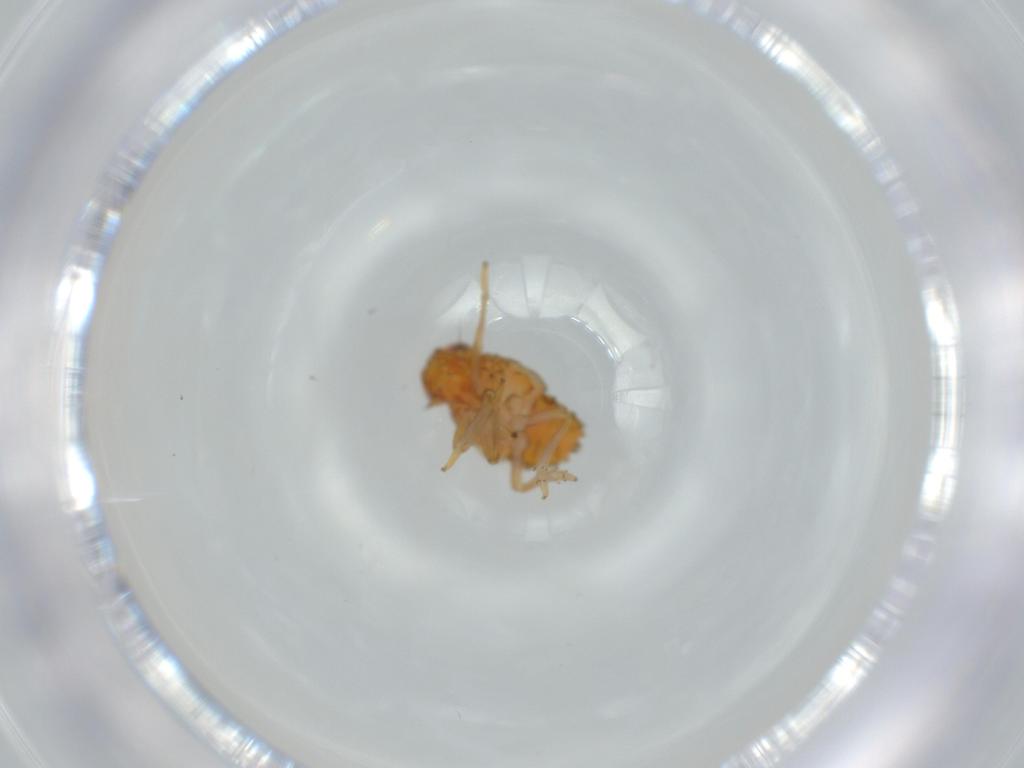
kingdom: Animalia
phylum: Arthropoda
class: Insecta
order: Hemiptera
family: Issidae
